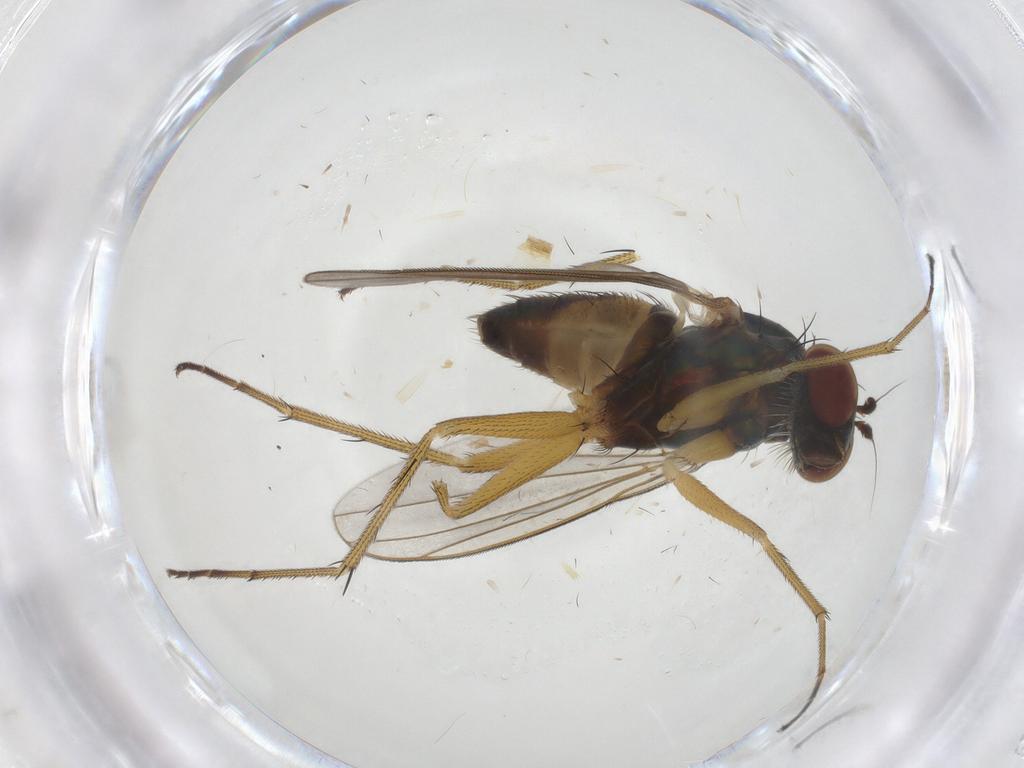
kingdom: Animalia
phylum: Arthropoda
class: Insecta
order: Diptera
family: Dolichopodidae
